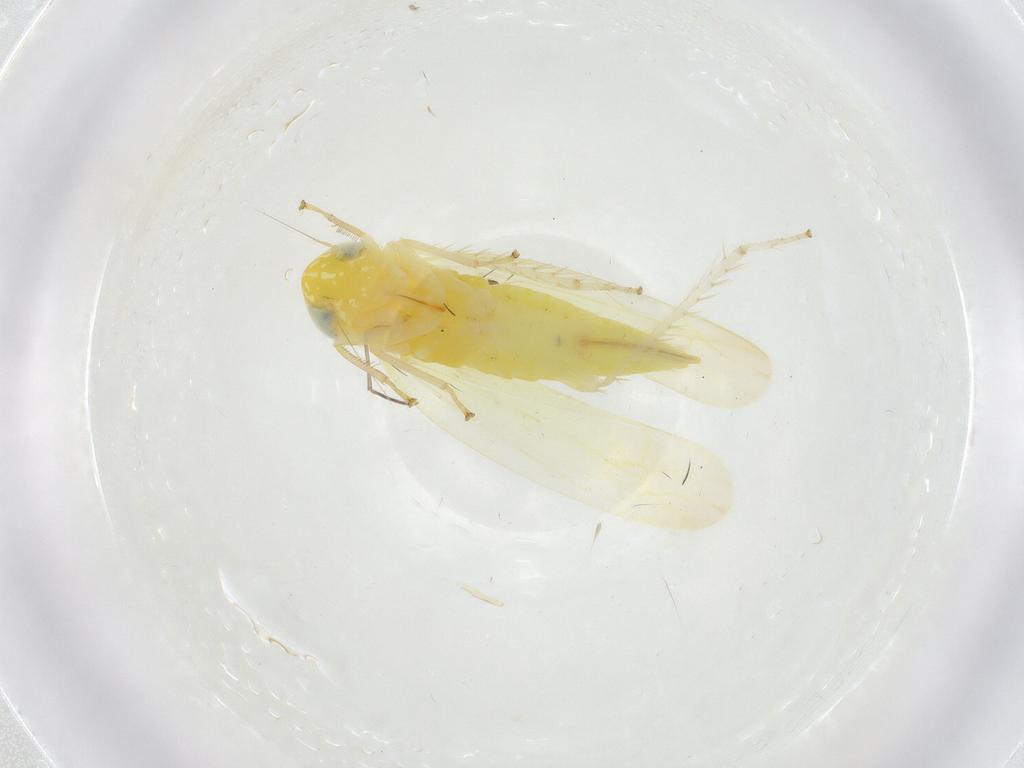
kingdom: Animalia
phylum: Arthropoda
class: Insecta
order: Hemiptera
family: Cicadellidae
